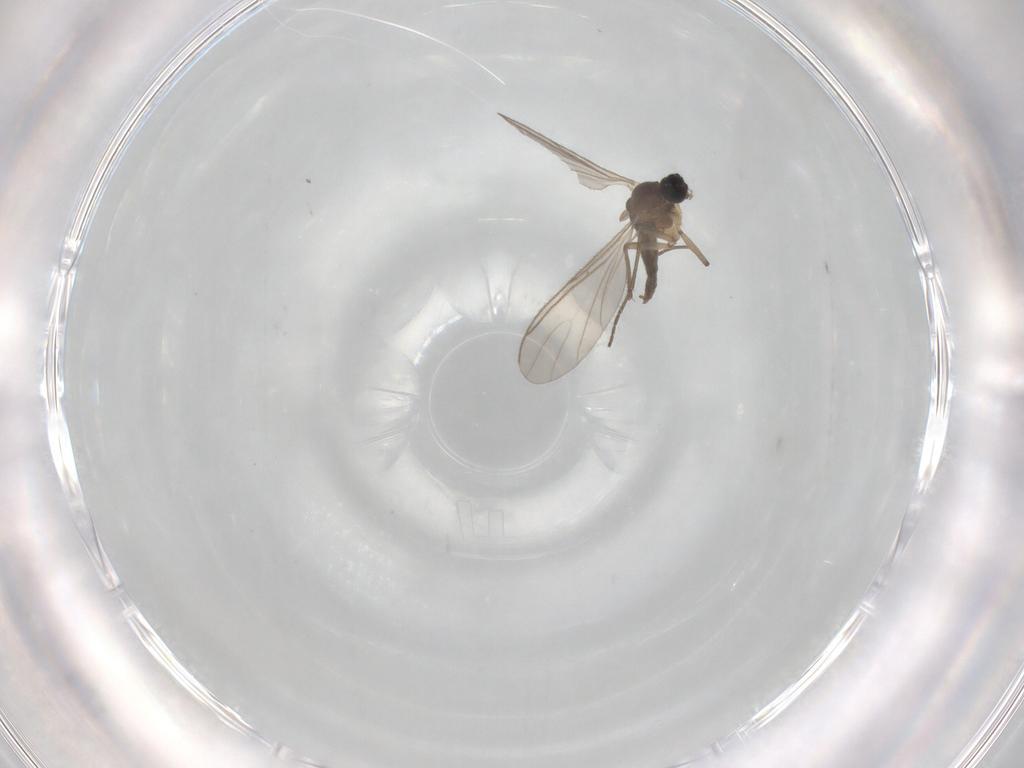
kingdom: Animalia
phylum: Arthropoda
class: Insecta
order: Diptera
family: Sciaridae
